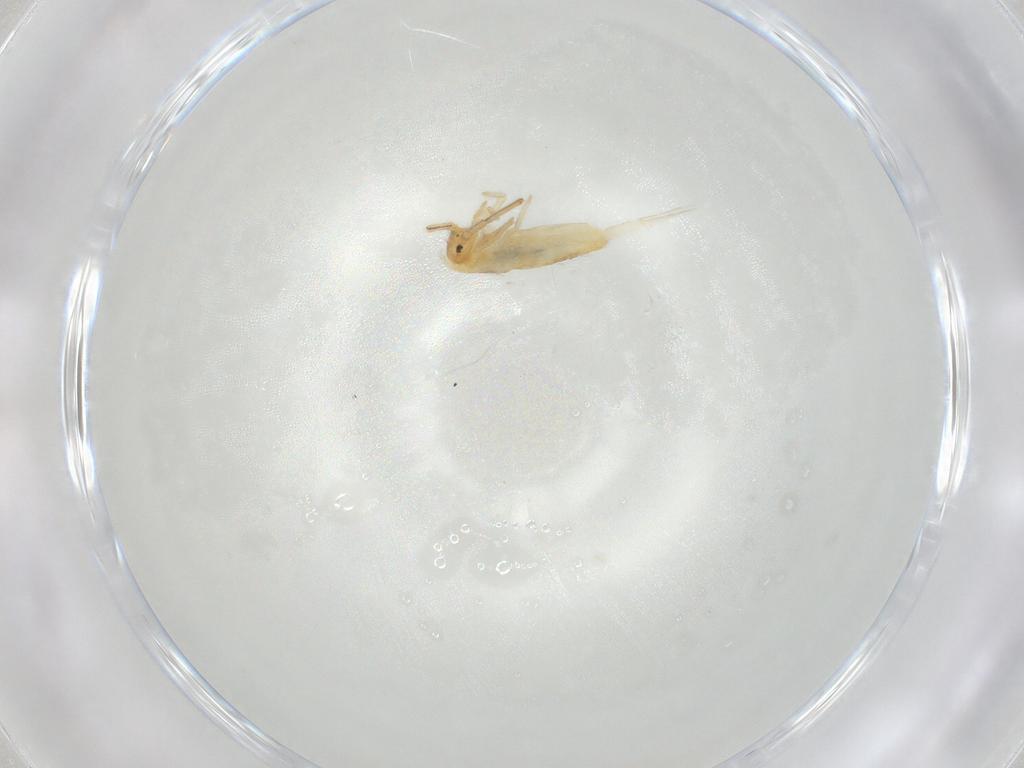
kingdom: Animalia
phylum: Arthropoda
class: Collembola
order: Entomobryomorpha
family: Entomobryidae
